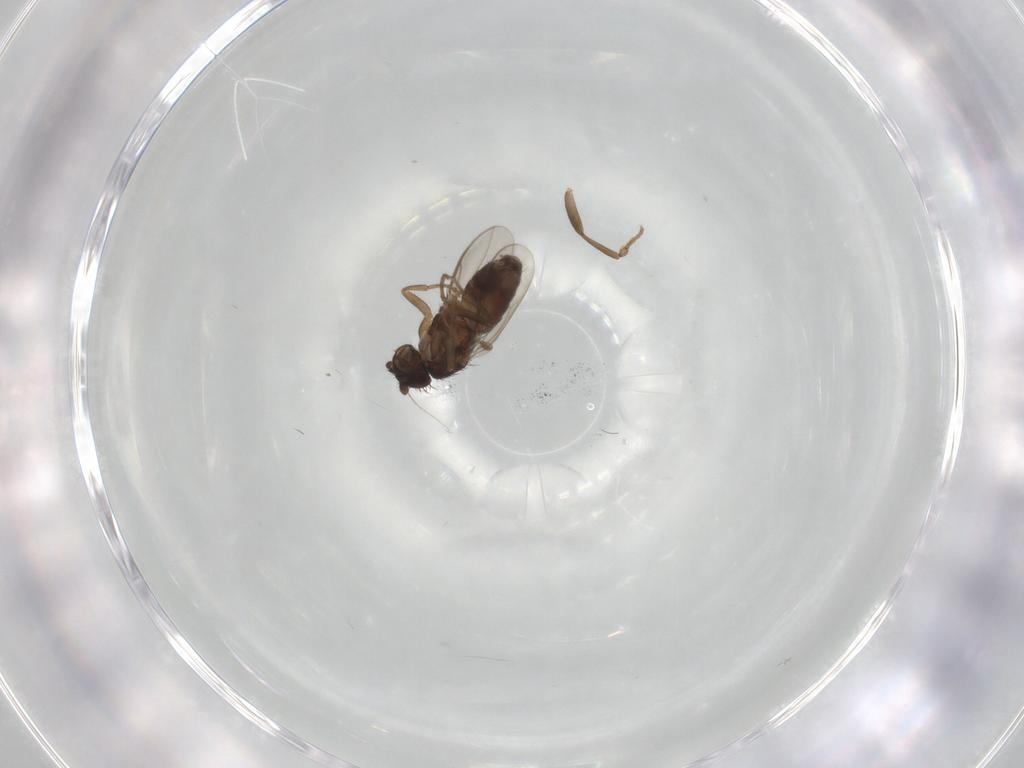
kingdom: Animalia
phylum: Arthropoda
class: Insecta
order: Diptera
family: Sphaeroceridae
